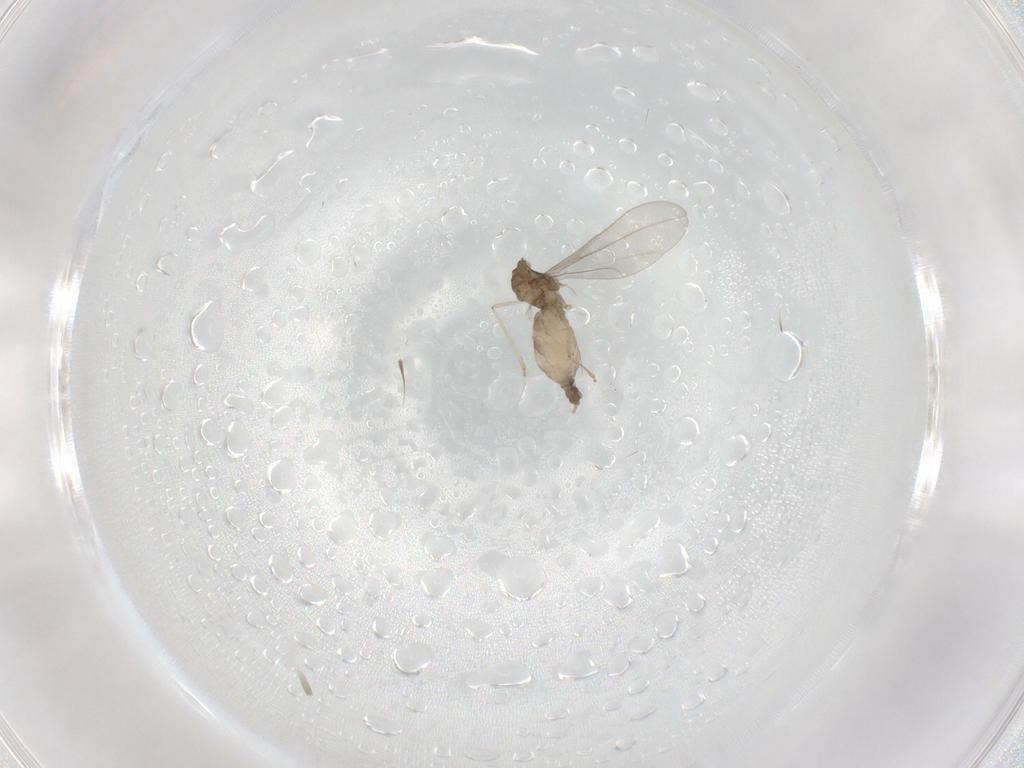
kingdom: Animalia
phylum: Arthropoda
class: Insecta
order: Diptera
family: Cecidomyiidae
